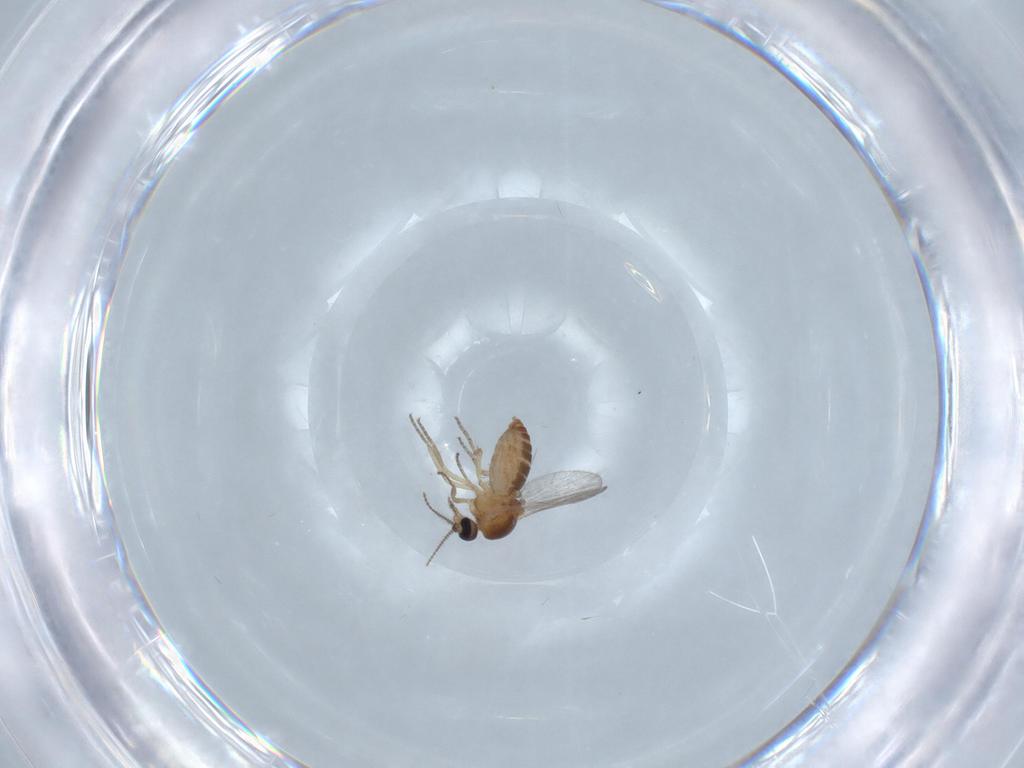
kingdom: Animalia
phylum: Arthropoda
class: Insecta
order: Diptera
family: Ceratopogonidae
